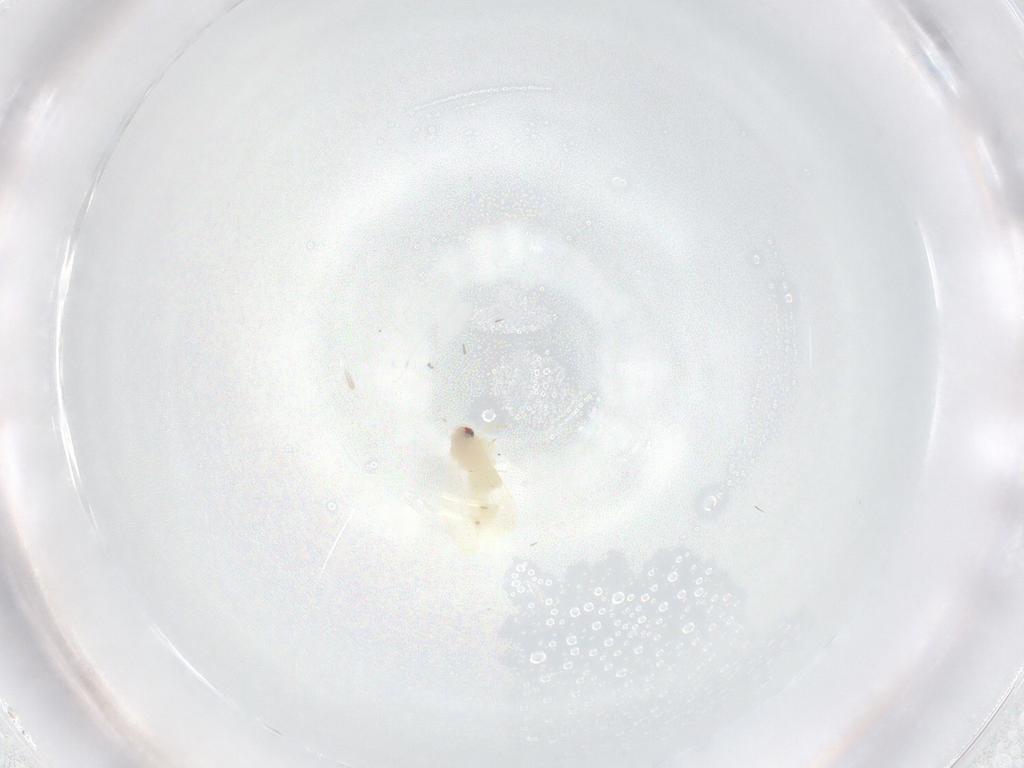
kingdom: Animalia
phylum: Arthropoda
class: Insecta
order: Hemiptera
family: Aleyrodidae
